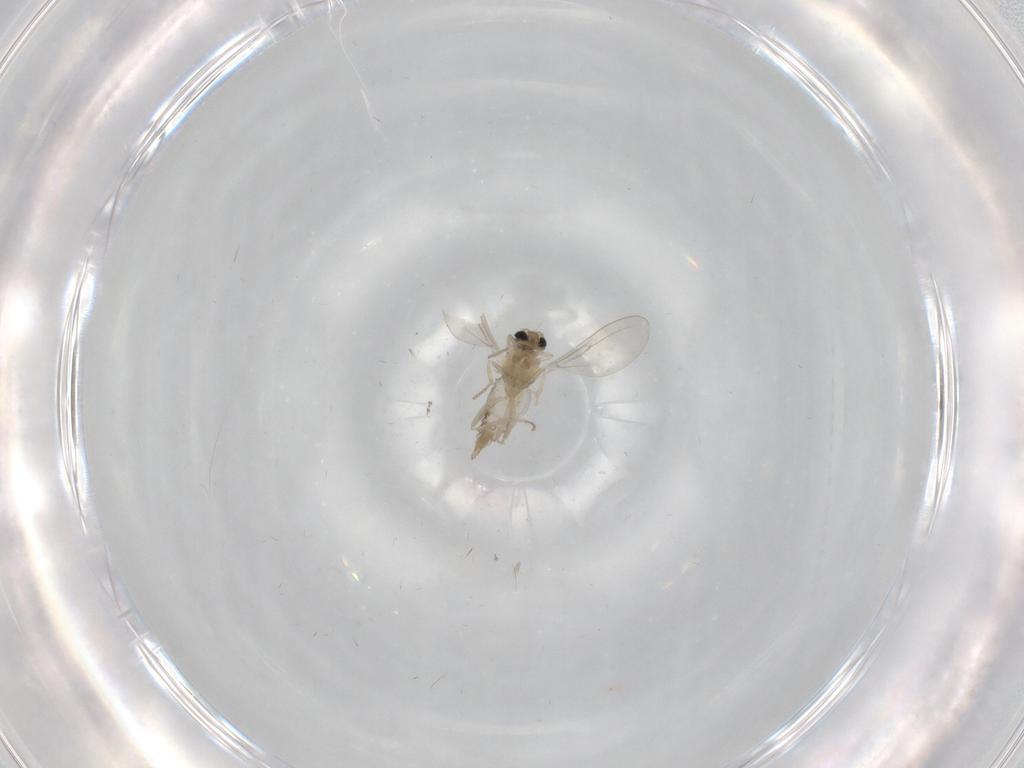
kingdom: Animalia
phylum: Arthropoda
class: Insecta
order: Diptera
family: Cecidomyiidae
